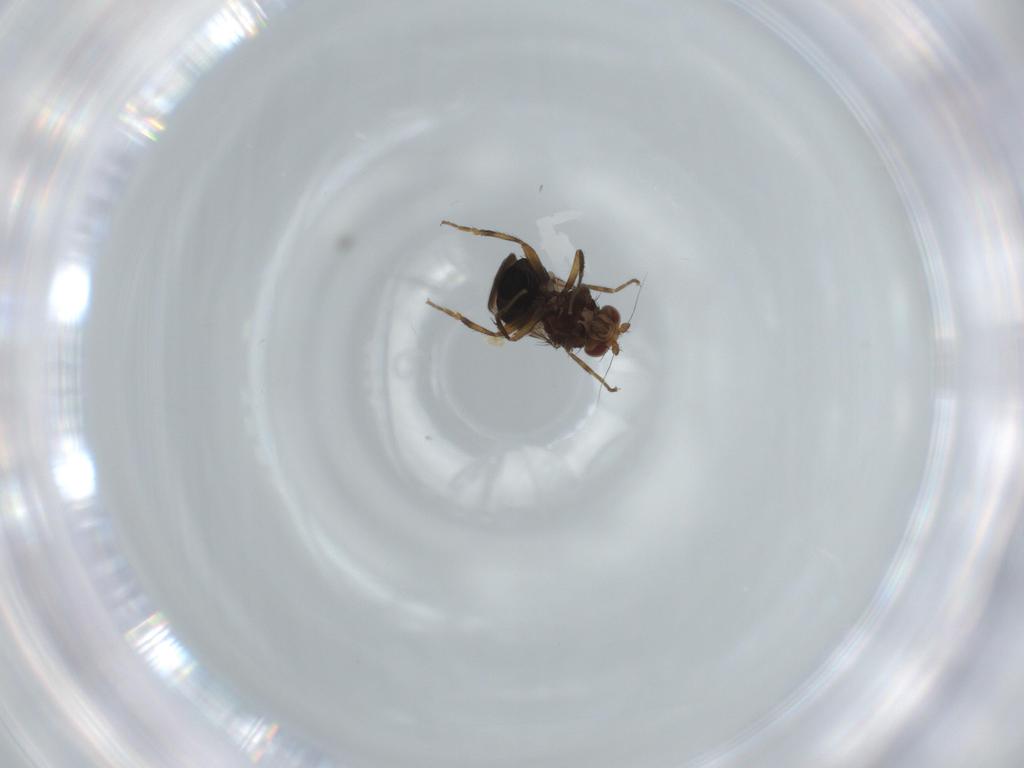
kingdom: Animalia
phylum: Arthropoda
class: Insecta
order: Diptera
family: Cecidomyiidae
